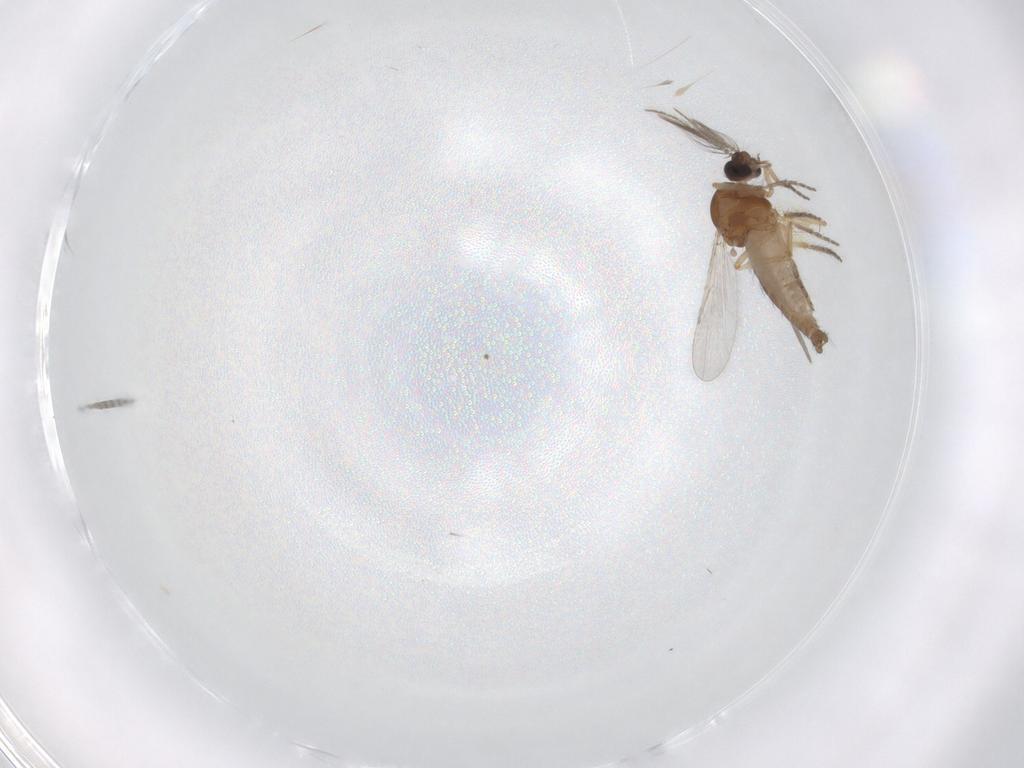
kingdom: Animalia
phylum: Arthropoda
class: Insecta
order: Diptera
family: Ceratopogonidae
